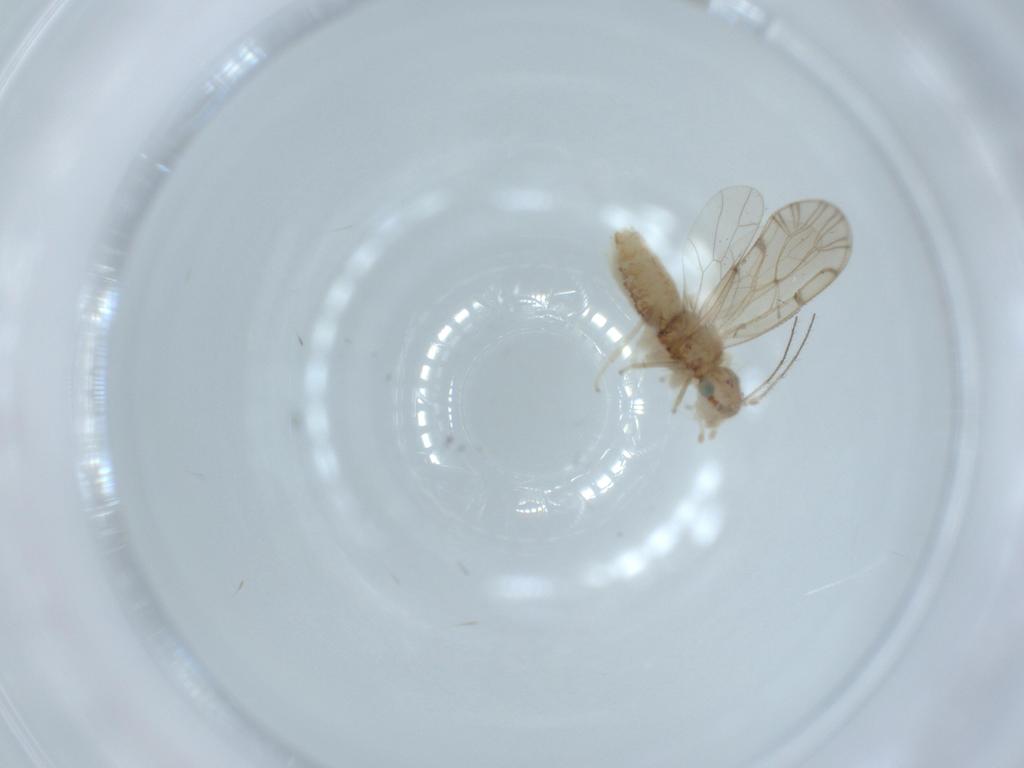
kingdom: Animalia
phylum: Arthropoda
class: Insecta
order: Psocodea
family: Ectopsocidae
